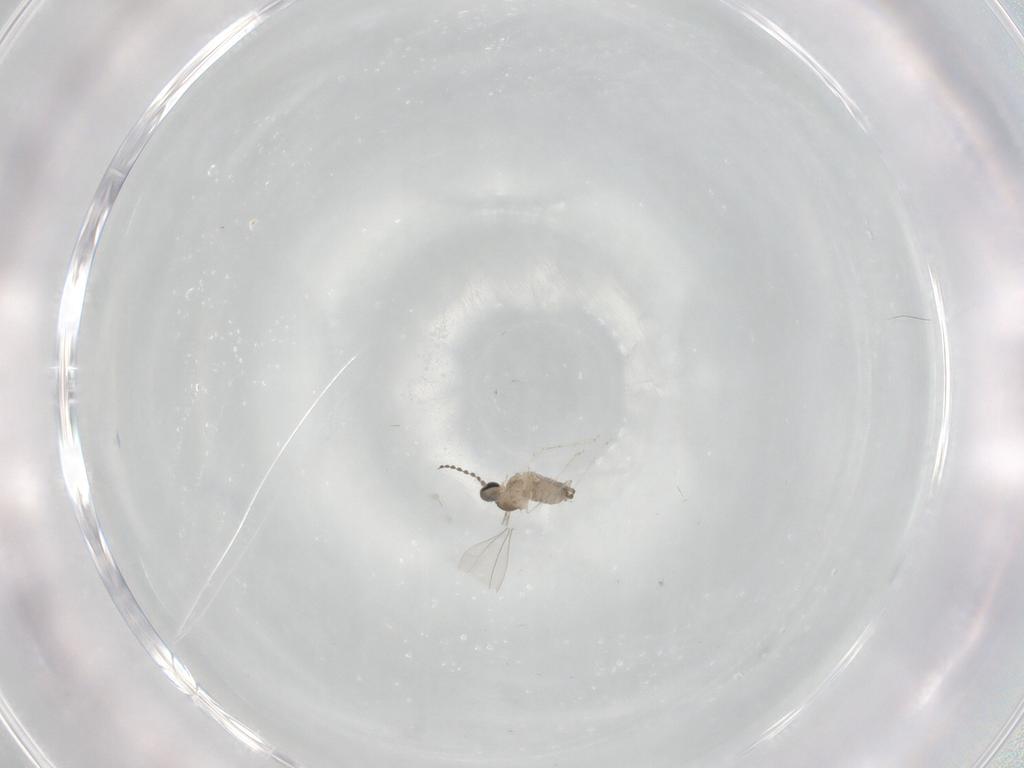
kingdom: Animalia
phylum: Arthropoda
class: Insecta
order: Diptera
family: Cecidomyiidae
